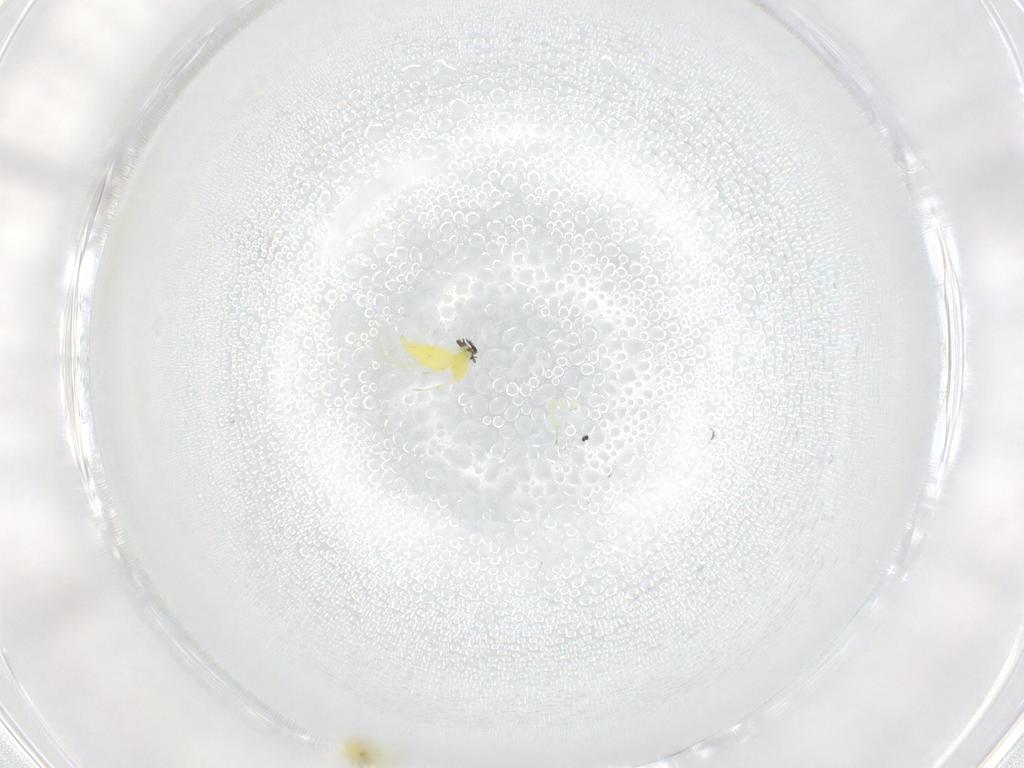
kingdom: Animalia
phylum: Arthropoda
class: Insecta
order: Hemiptera
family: Aleyrodidae
